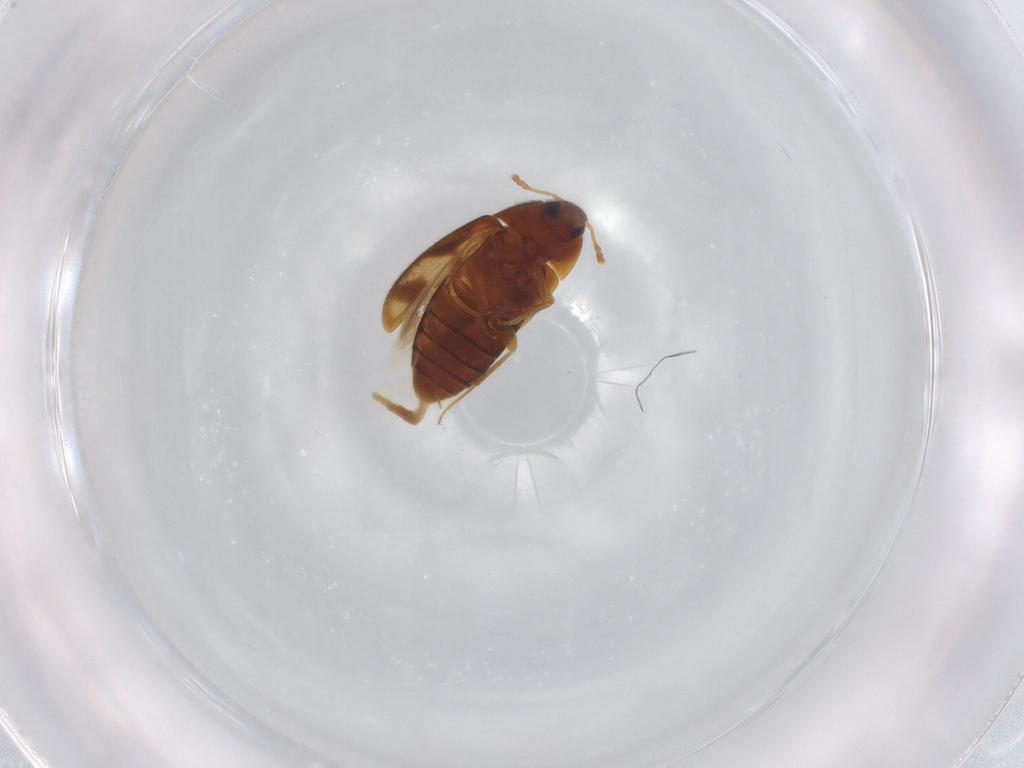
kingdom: Animalia
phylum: Arthropoda
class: Insecta
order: Coleoptera
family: Mycetophagidae
